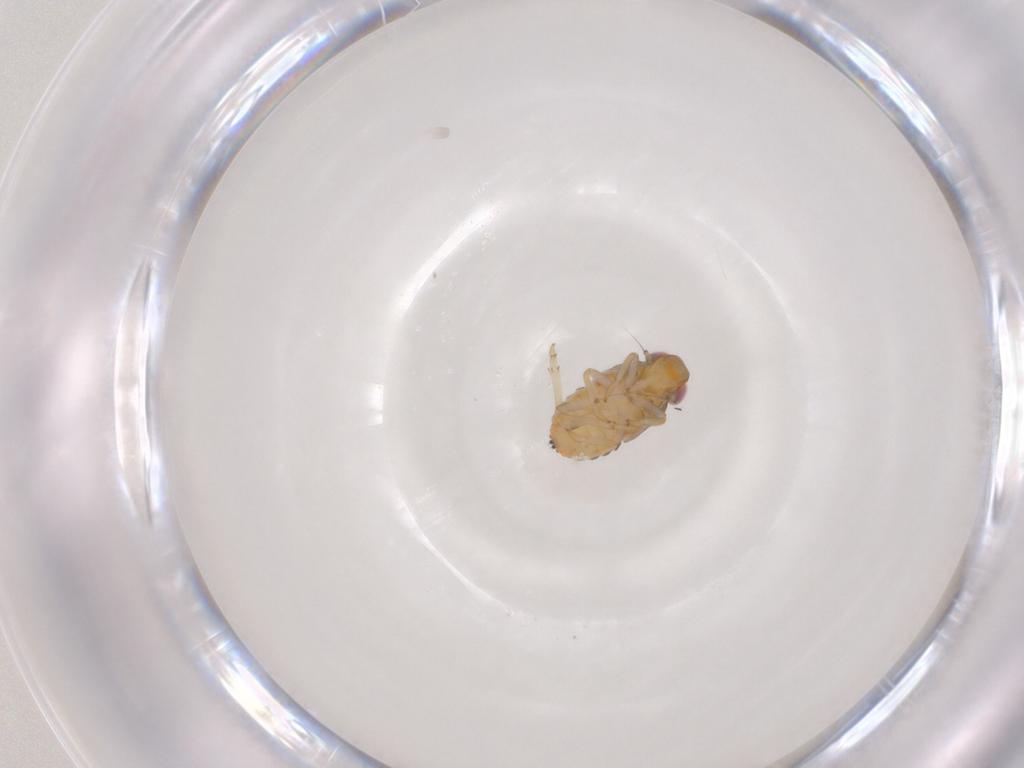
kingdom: Animalia
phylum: Arthropoda
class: Insecta
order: Hemiptera
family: Issidae
